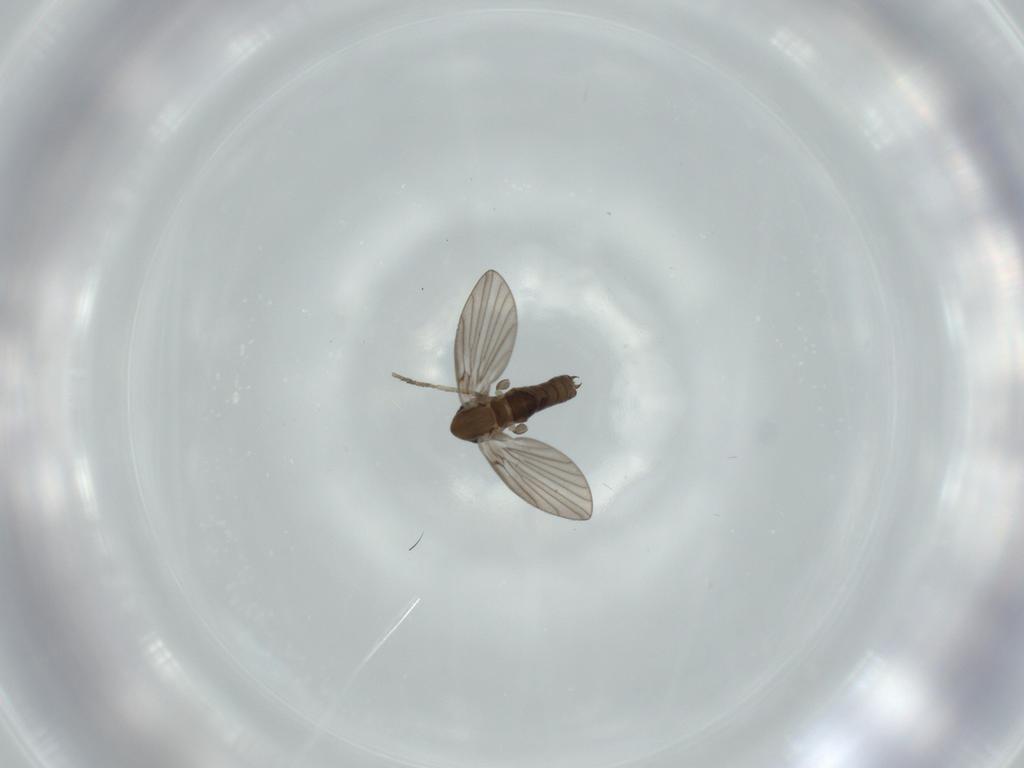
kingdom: Animalia
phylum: Arthropoda
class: Insecta
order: Diptera
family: Psychodidae
